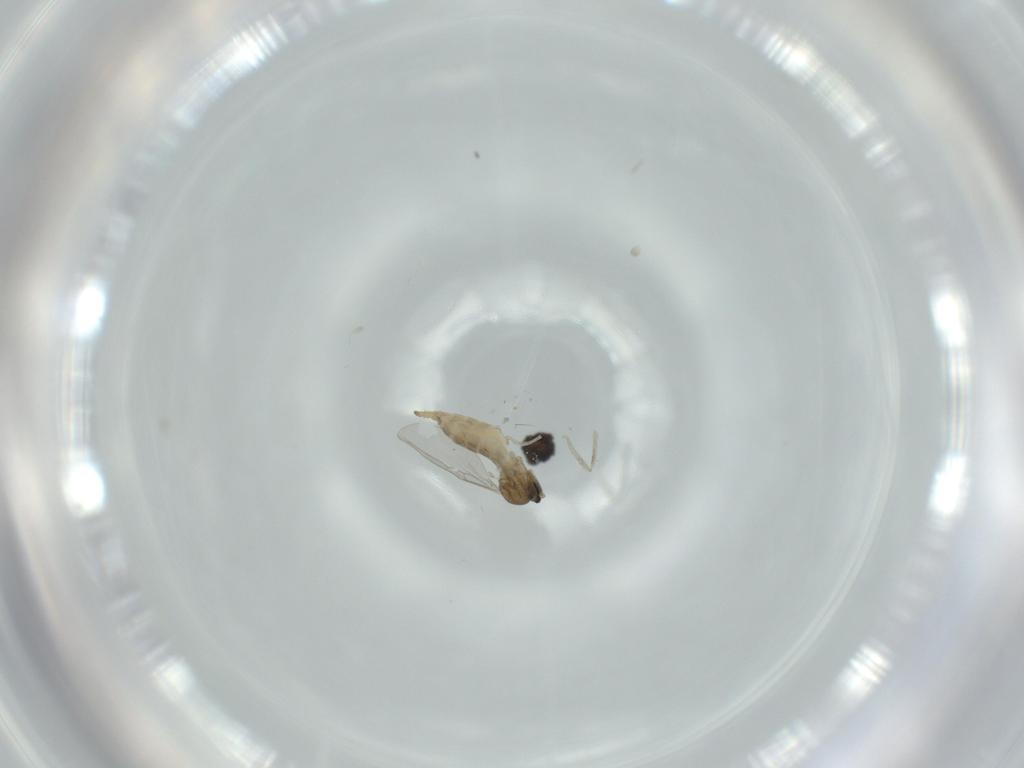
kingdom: Animalia
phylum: Arthropoda
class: Insecta
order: Diptera
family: Cecidomyiidae
